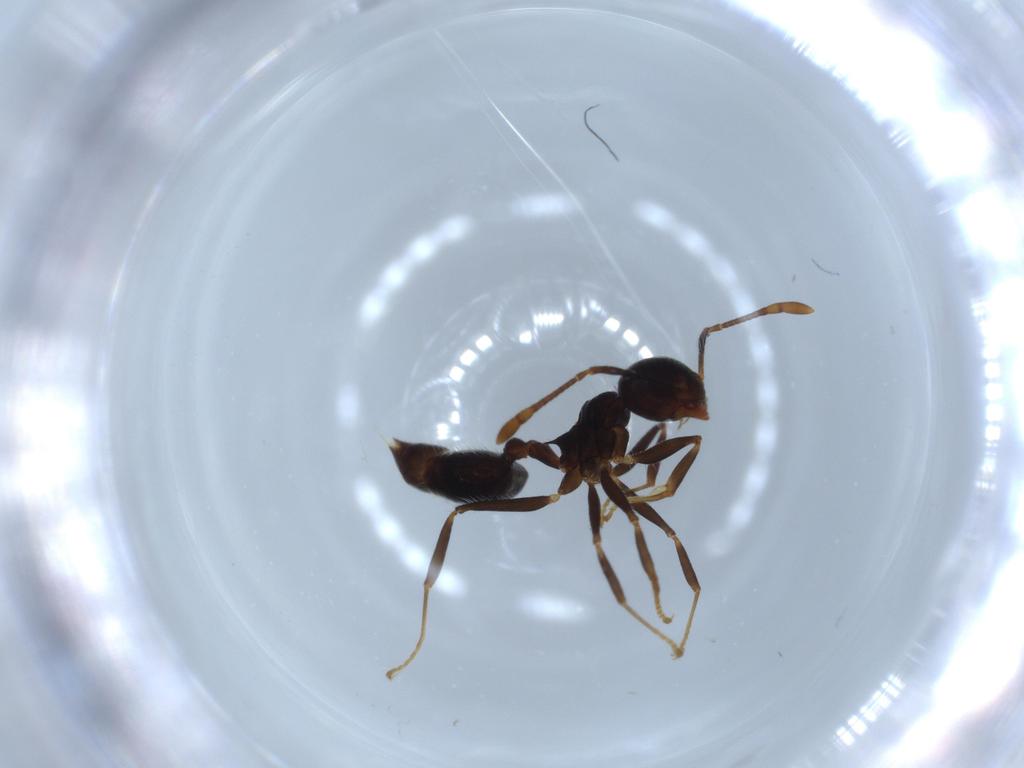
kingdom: Animalia
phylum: Arthropoda
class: Insecta
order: Hymenoptera
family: Formicidae
